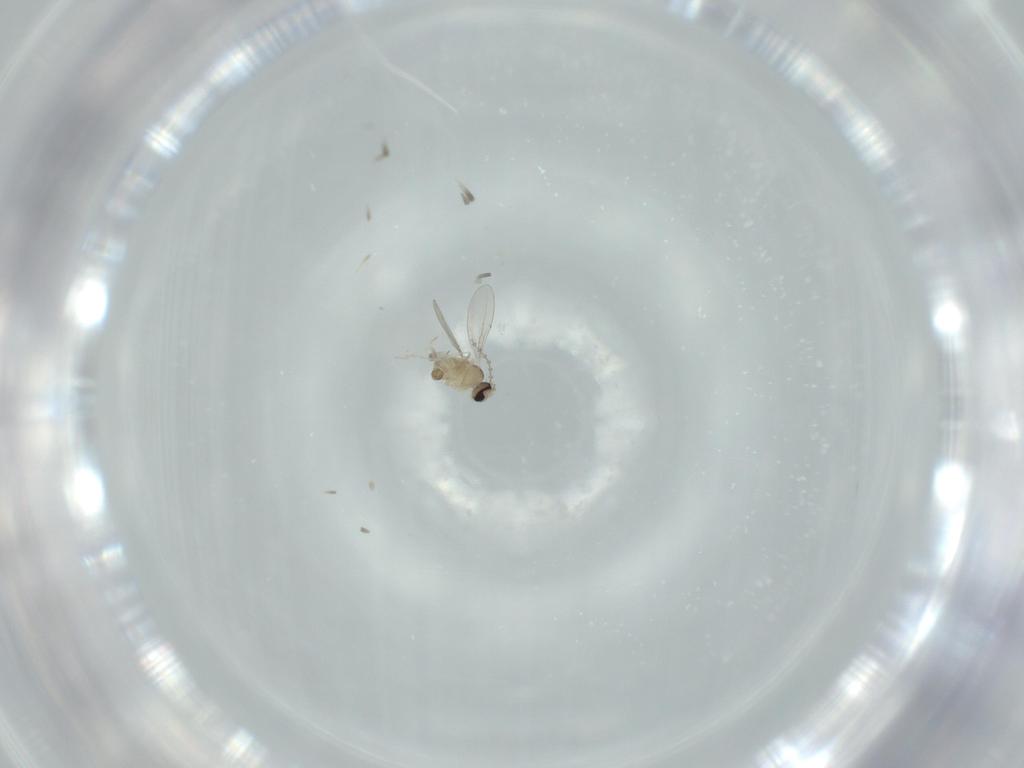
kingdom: Animalia
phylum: Arthropoda
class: Insecta
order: Diptera
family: Cecidomyiidae
